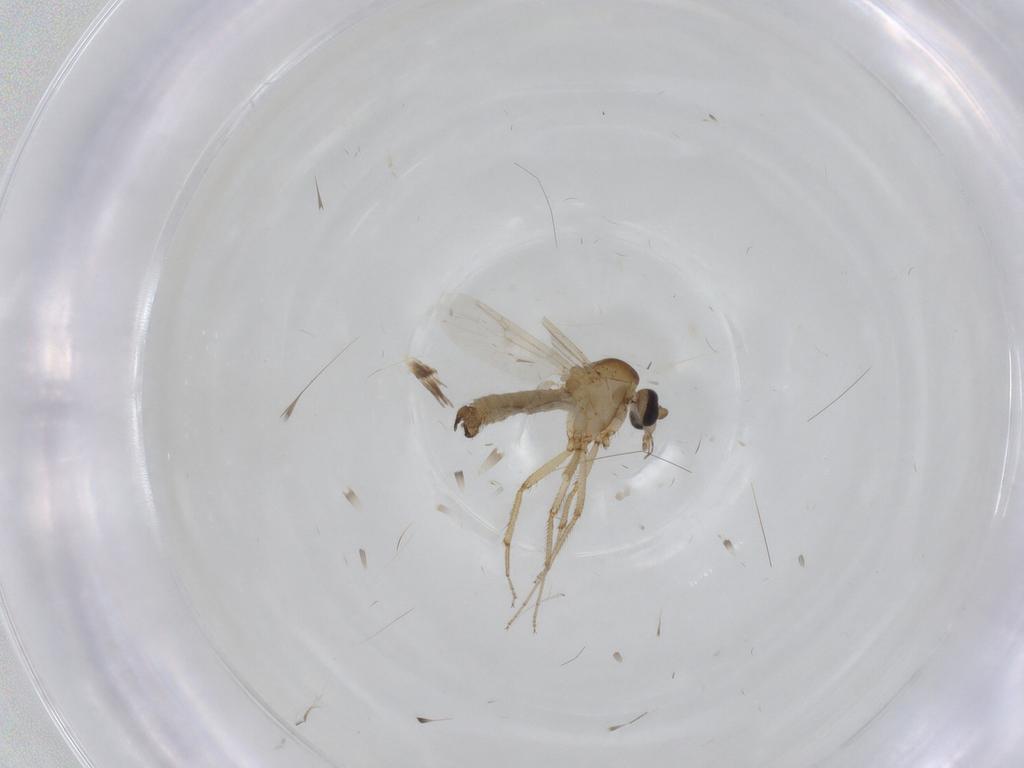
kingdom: Animalia
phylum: Arthropoda
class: Insecta
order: Diptera
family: Ceratopogonidae
